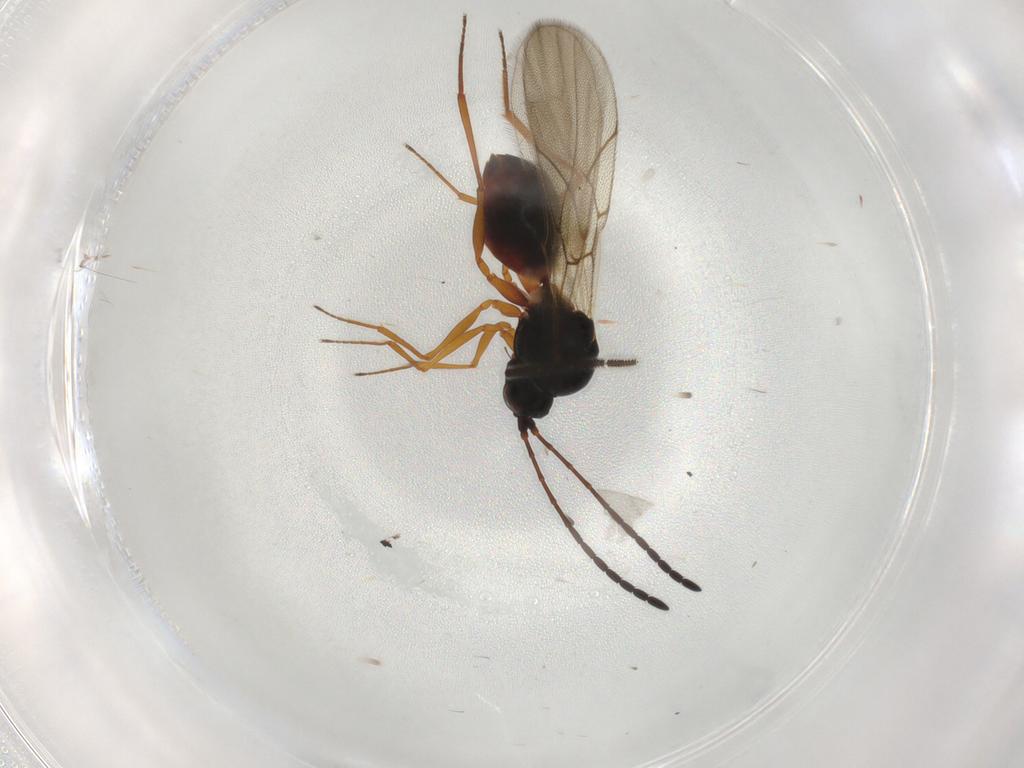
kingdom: Animalia
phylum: Arthropoda
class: Insecta
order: Hymenoptera
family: Figitidae
